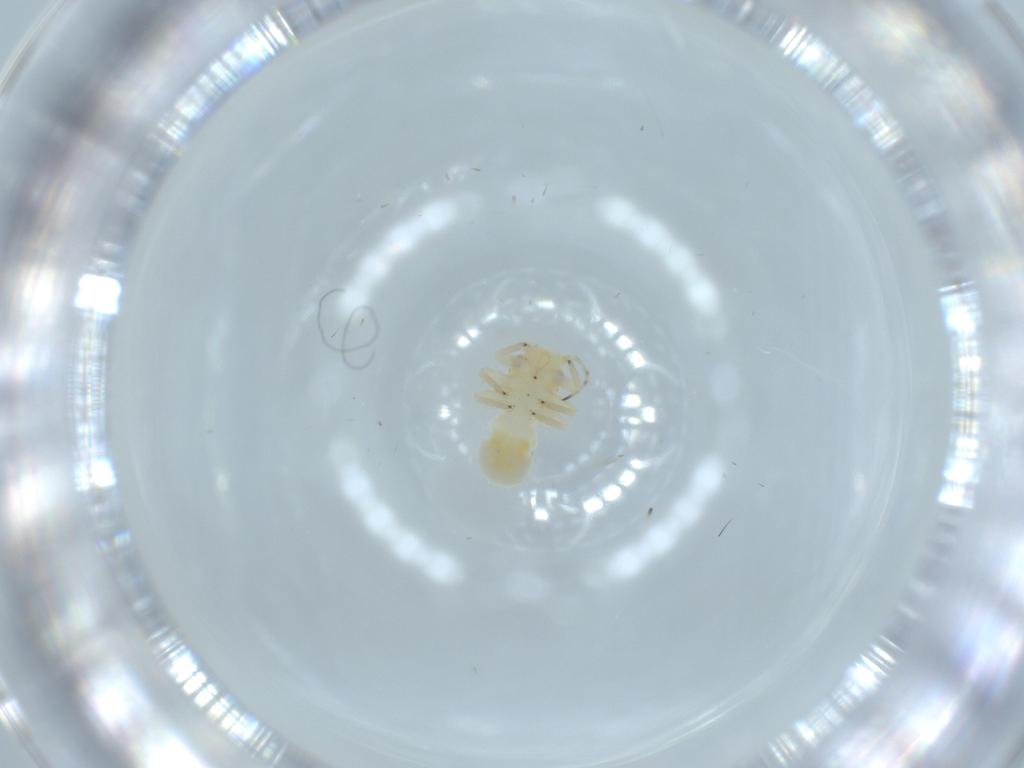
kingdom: Animalia
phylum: Arthropoda
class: Insecta
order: Hemiptera
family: Psyllidae
